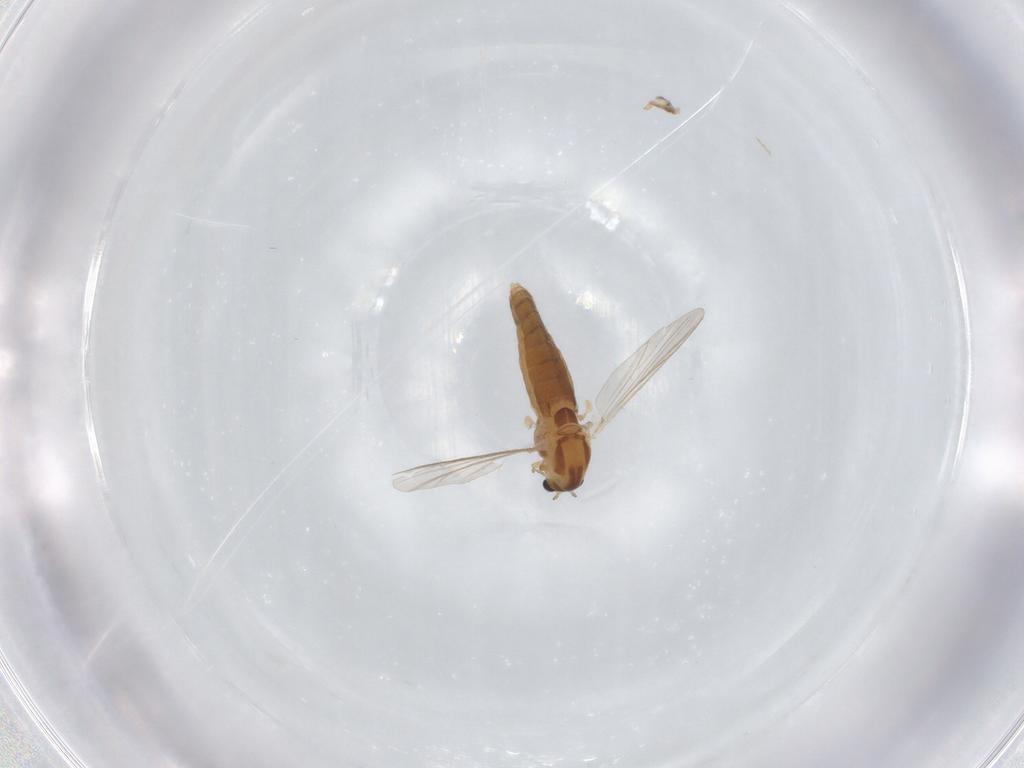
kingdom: Animalia
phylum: Arthropoda
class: Insecta
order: Diptera
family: Chironomidae
